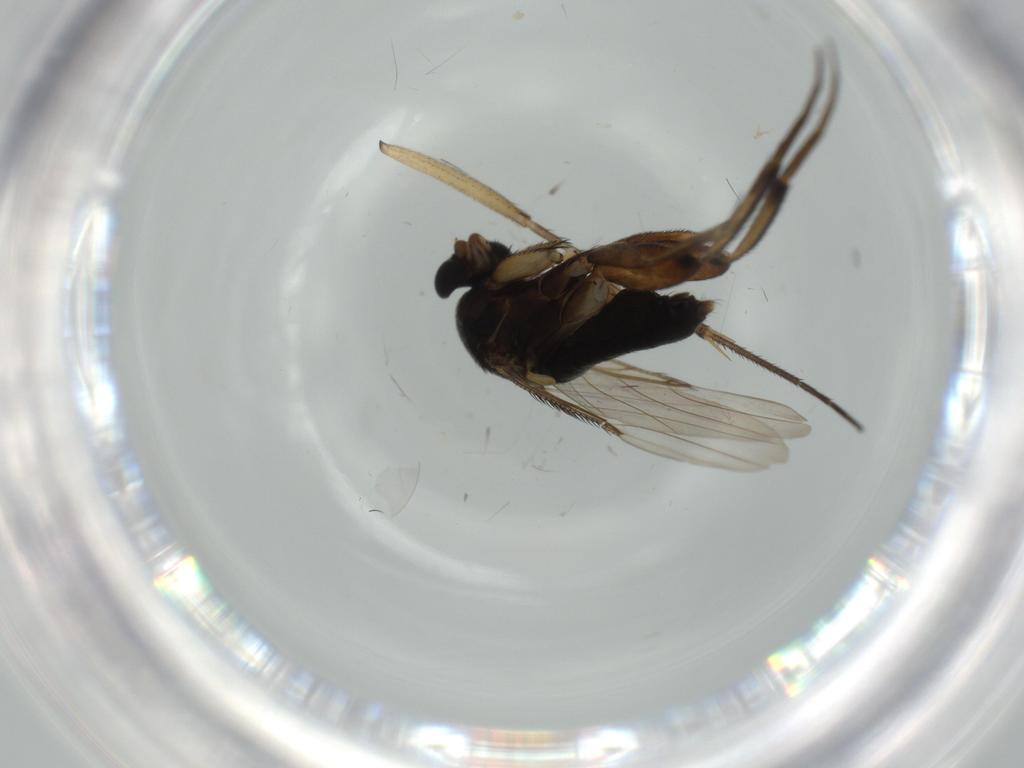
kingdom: Animalia
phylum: Arthropoda
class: Insecta
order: Diptera
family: Phoridae
